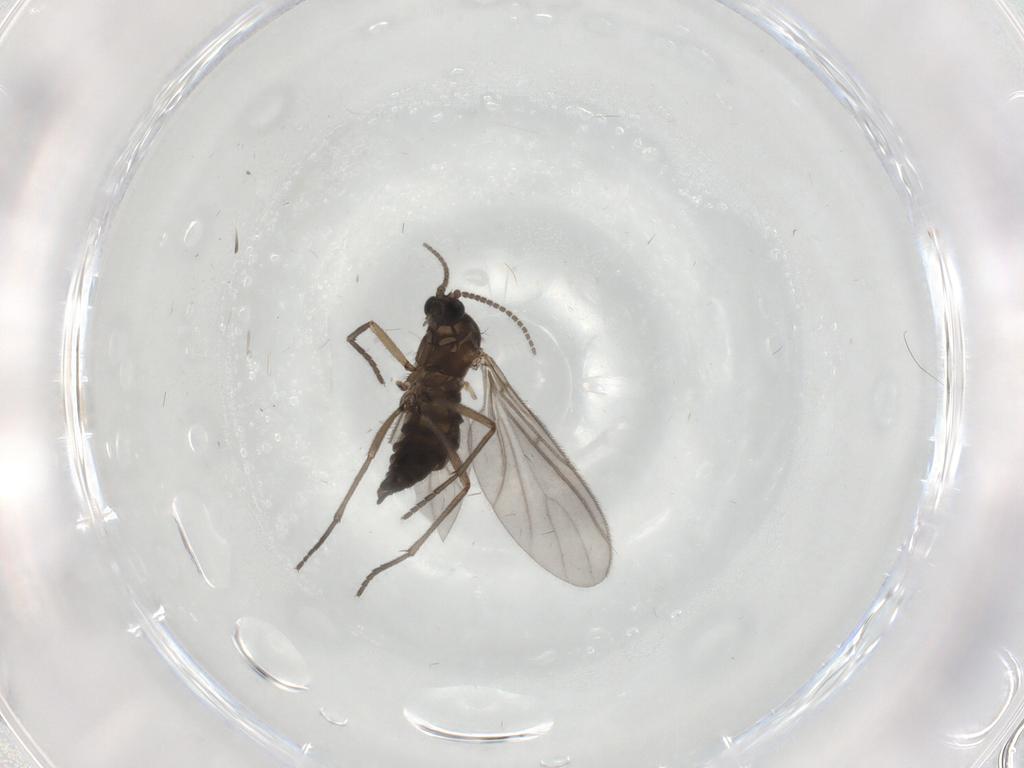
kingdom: Animalia
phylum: Arthropoda
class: Insecta
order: Diptera
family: Sciaridae
